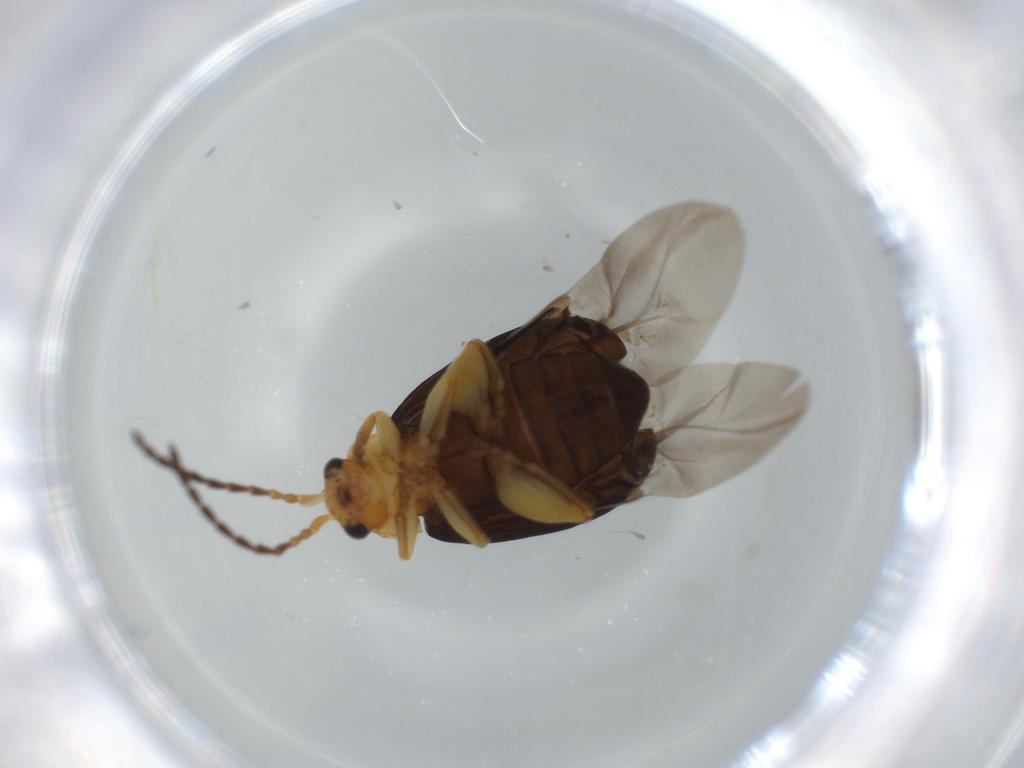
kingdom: Animalia
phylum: Arthropoda
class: Insecta
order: Coleoptera
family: Chrysomelidae
